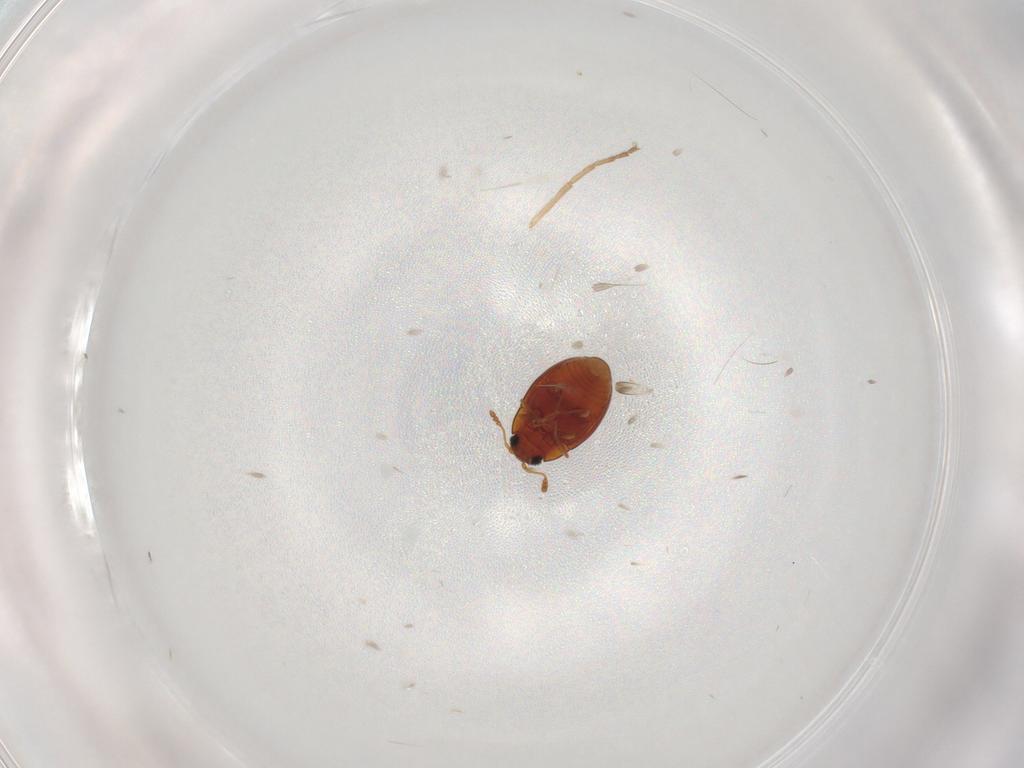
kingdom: Animalia
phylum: Arthropoda
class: Insecta
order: Coleoptera
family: Cryptophagidae
